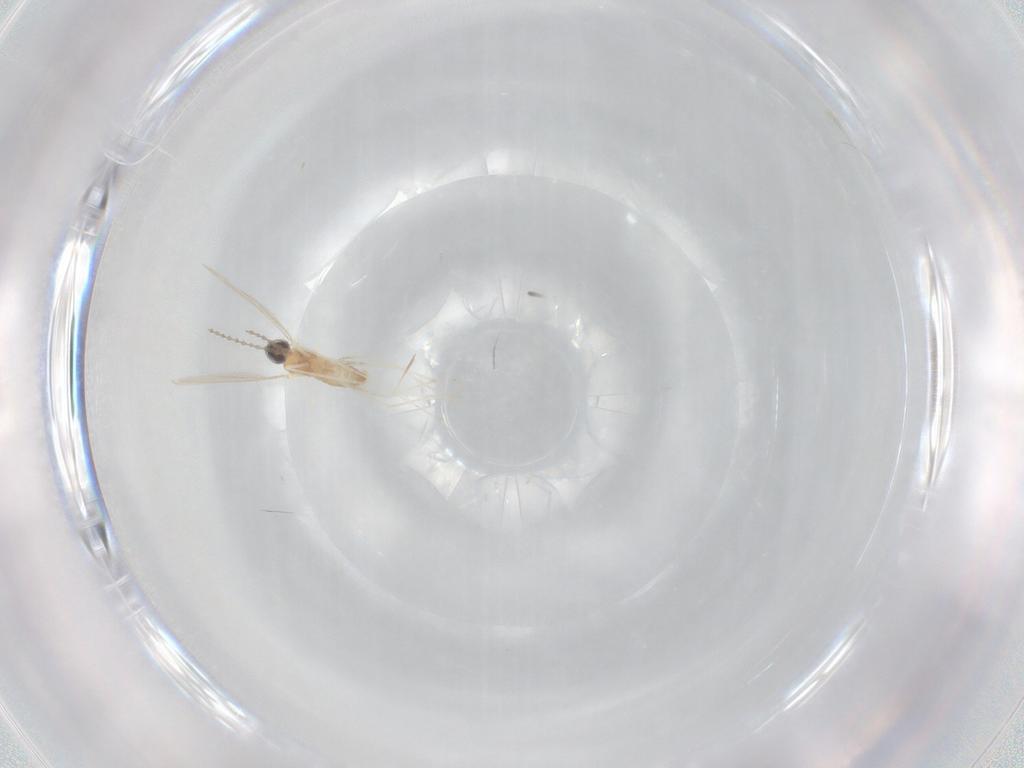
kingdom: Animalia
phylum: Arthropoda
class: Insecta
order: Diptera
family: Cecidomyiidae
